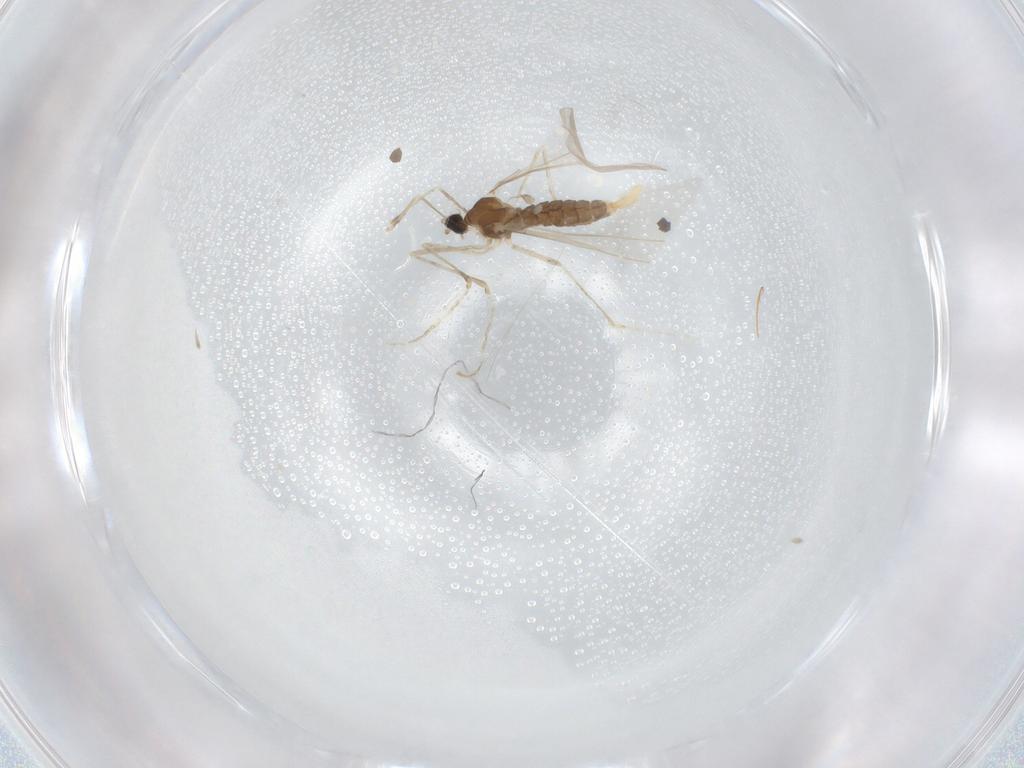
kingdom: Animalia
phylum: Arthropoda
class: Insecta
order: Diptera
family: Cecidomyiidae
